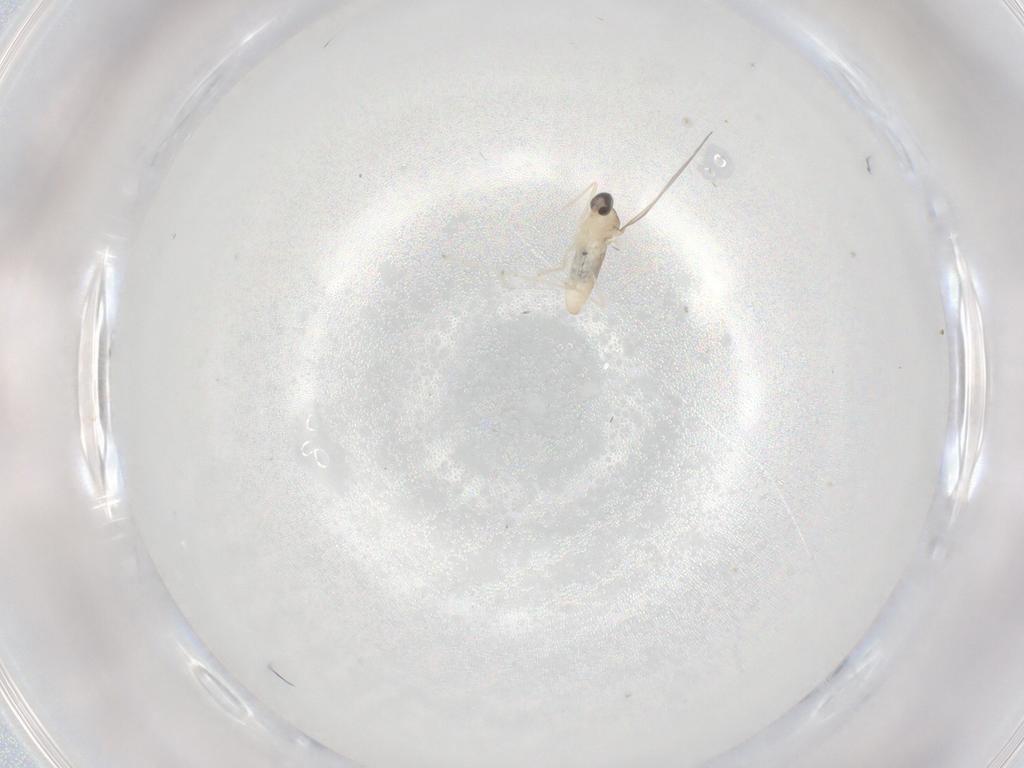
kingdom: Animalia
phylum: Arthropoda
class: Insecta
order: Diptera
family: Cecidomyiidae
